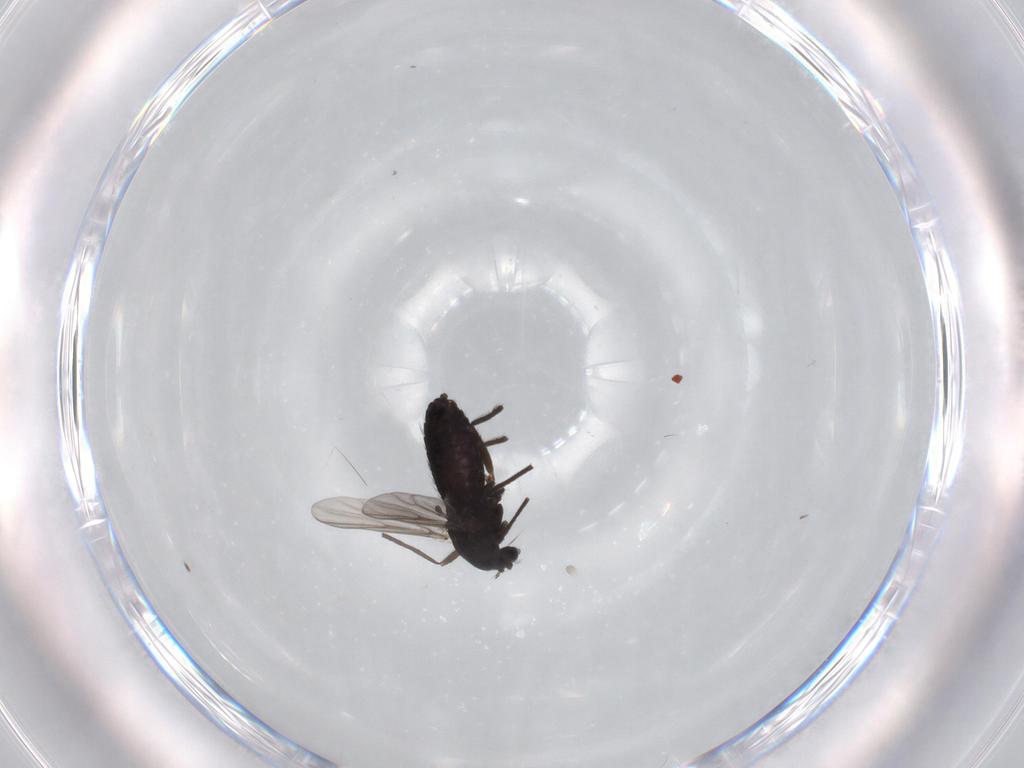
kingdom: Animalia
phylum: Arthropoda
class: Insecta
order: Diptera
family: Chironomidae
